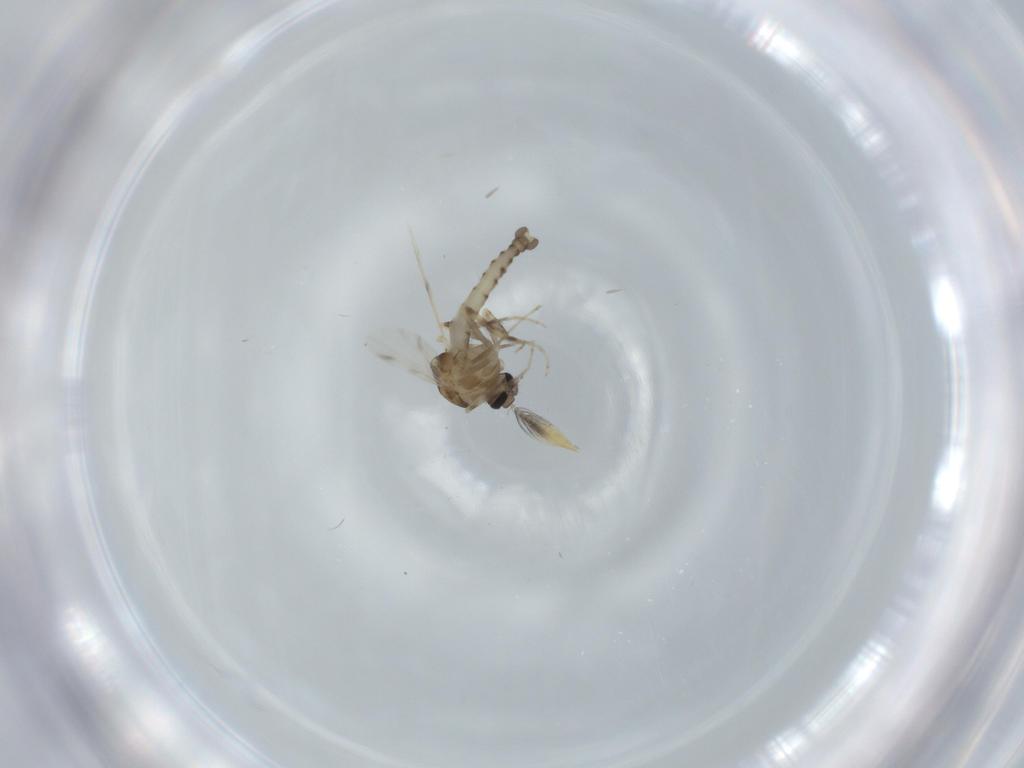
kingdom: Animalia
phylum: Arthropoda
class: Insecta
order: Diptera
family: Ceratopogonidae
